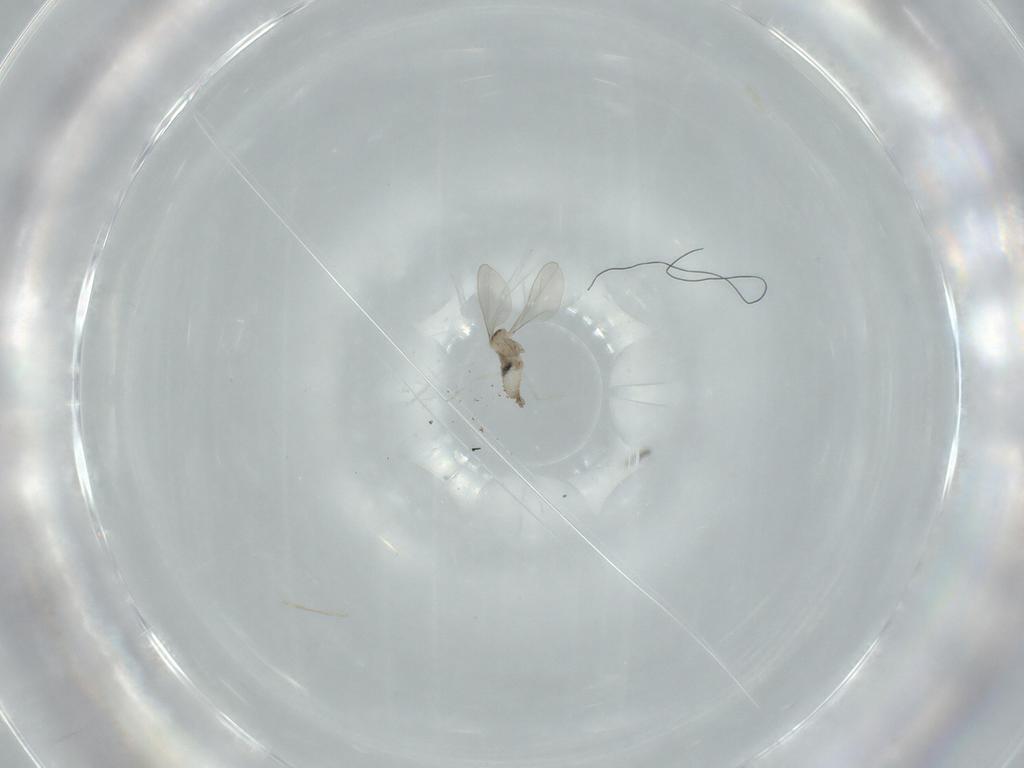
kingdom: Animalia
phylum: Arthropoda
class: Insecta
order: Diptera
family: Cecidomyiidae
